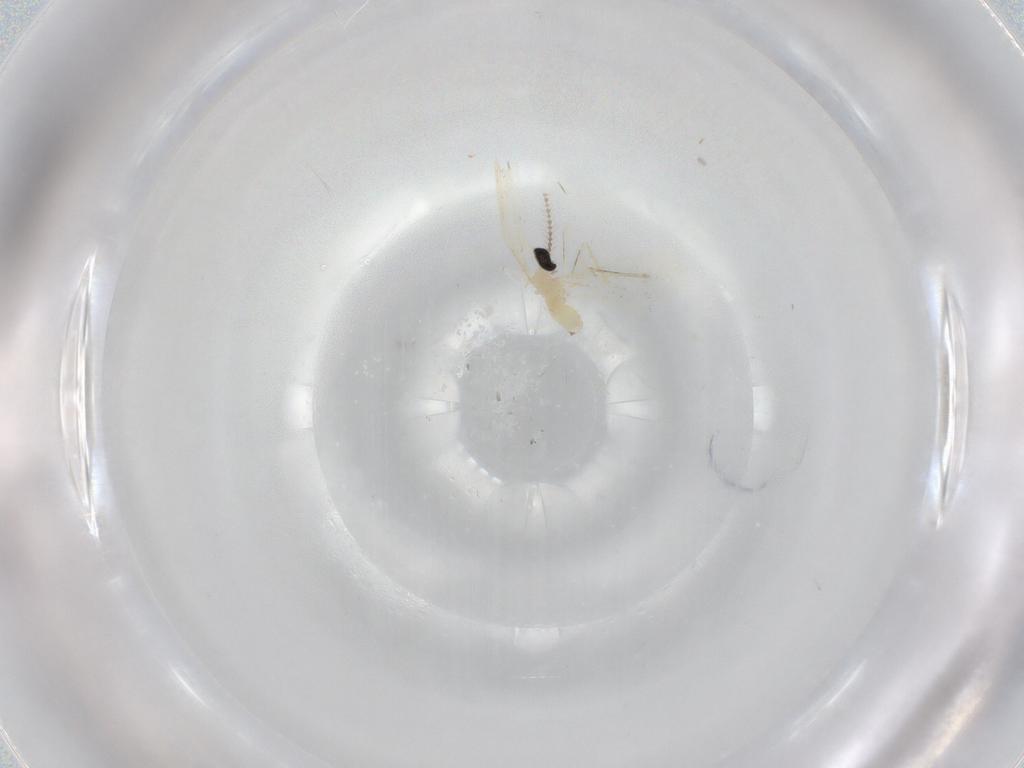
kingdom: Animalia
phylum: Arthropoda
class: Insecta
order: Diptera
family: Cecidomyiidae
